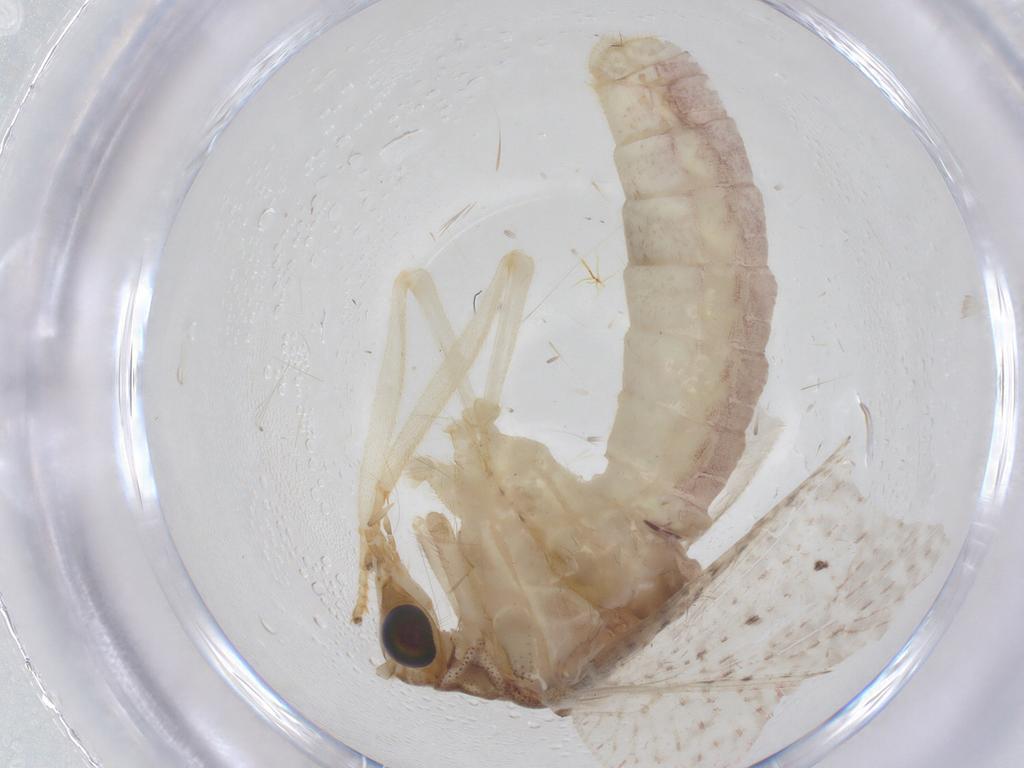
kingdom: Animalia
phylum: Arthropoda
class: Insecta
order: Neuroptera
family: Hemerobiidae
